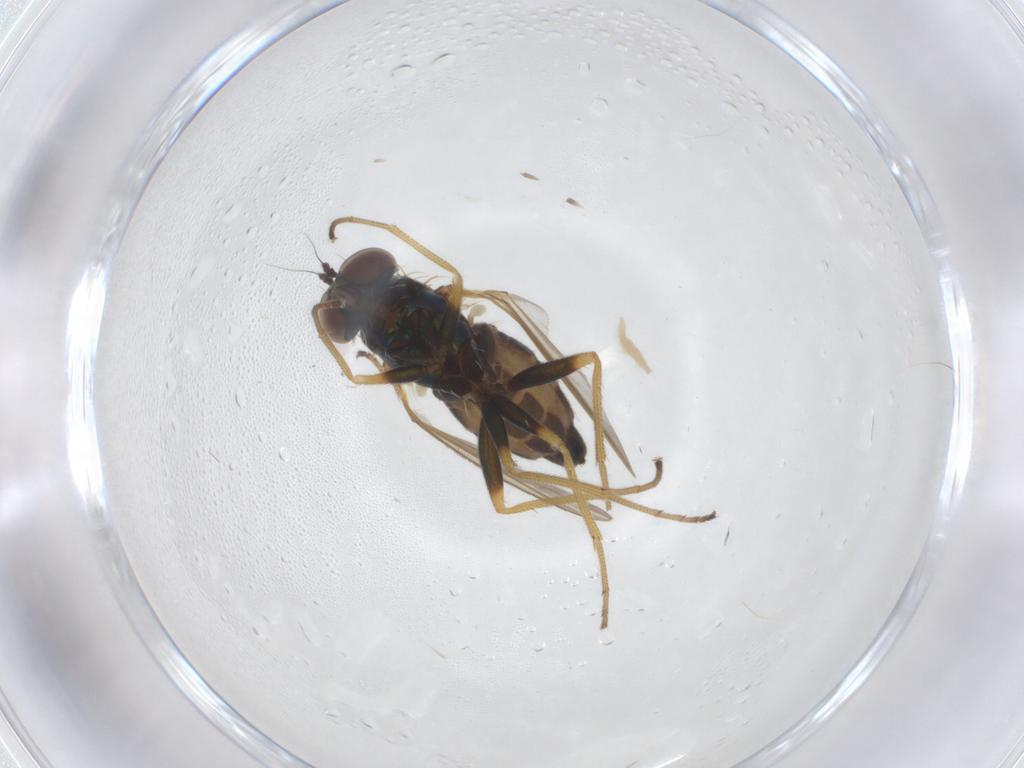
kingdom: Animalia
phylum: Arthropoda
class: Insecta
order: Diptera
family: Dolichopodidae
